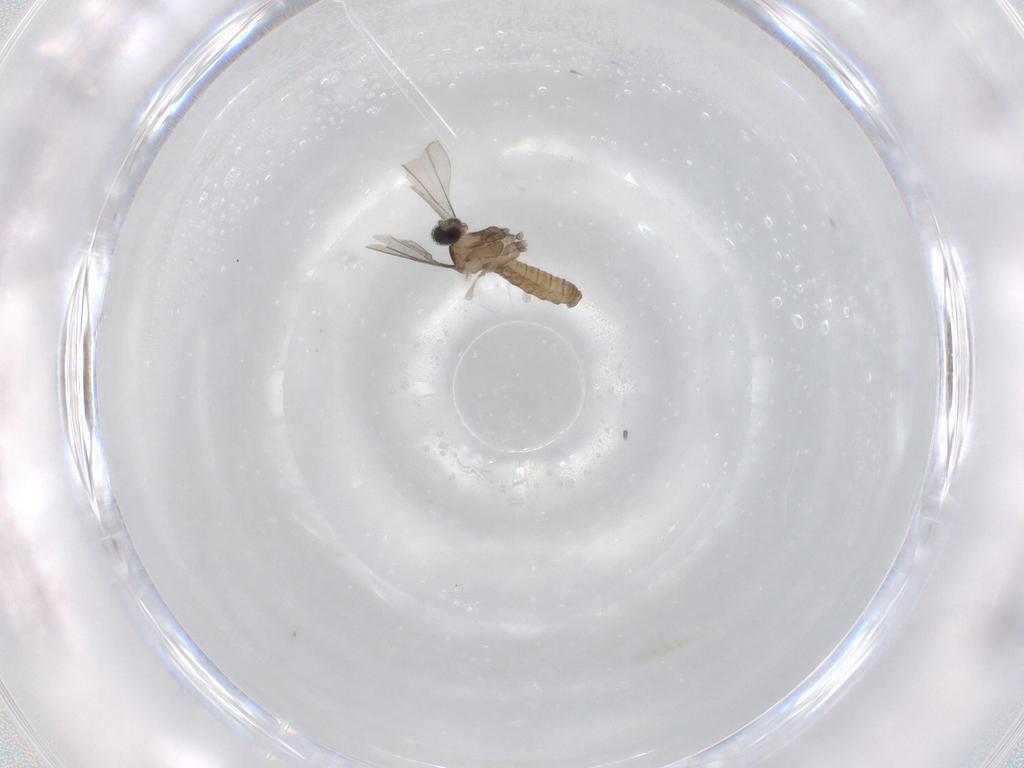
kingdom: Animalia
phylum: Arthropoda
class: Insecta
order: Diptera
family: Cecidomyiidae
